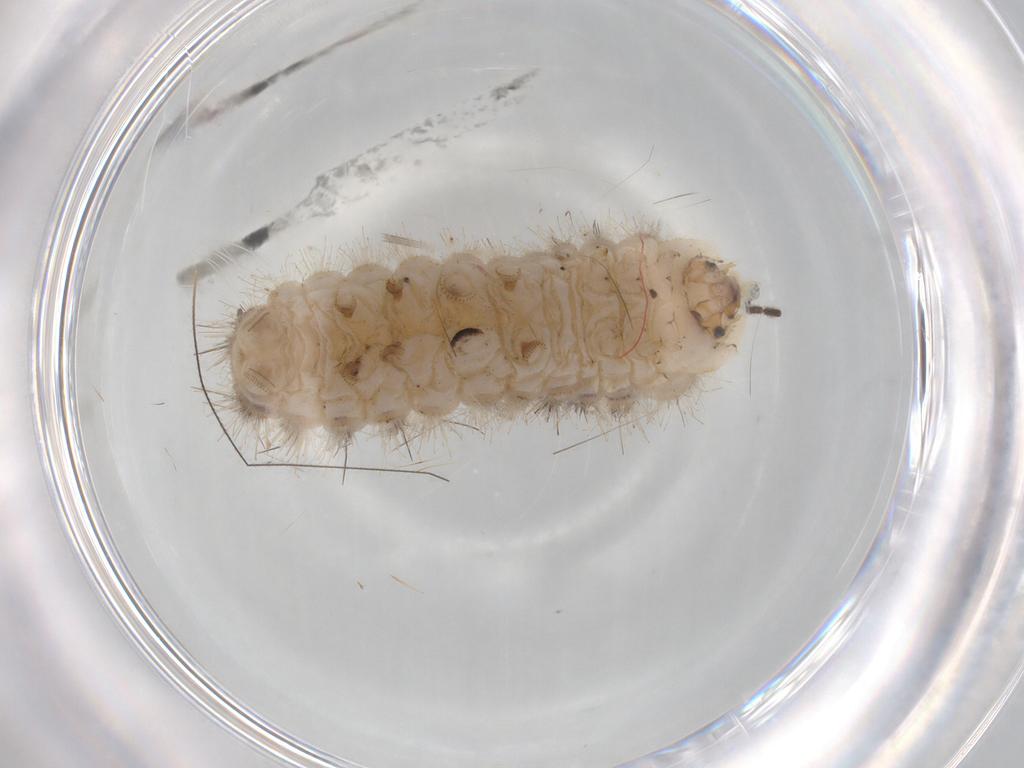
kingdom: Animalia
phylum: Arthropoda
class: Insecta
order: Lepidoptera
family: Zygaenidae
